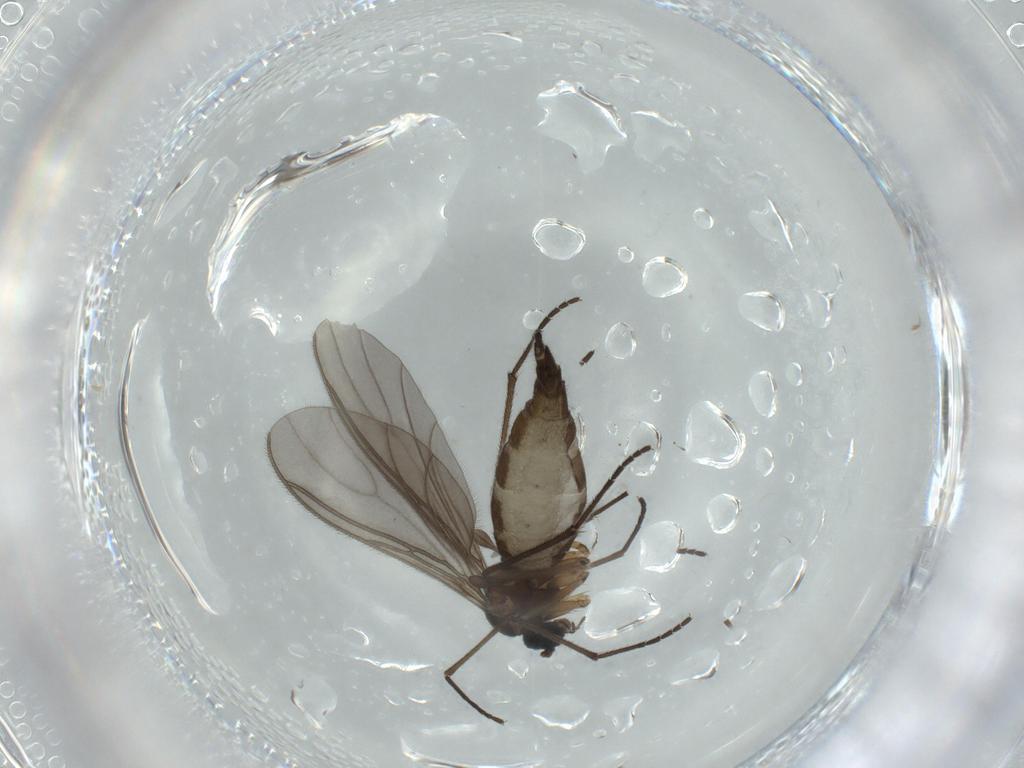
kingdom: Animalia
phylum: Arthropoda
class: Insecta
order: Diptera
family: Sciaridae
